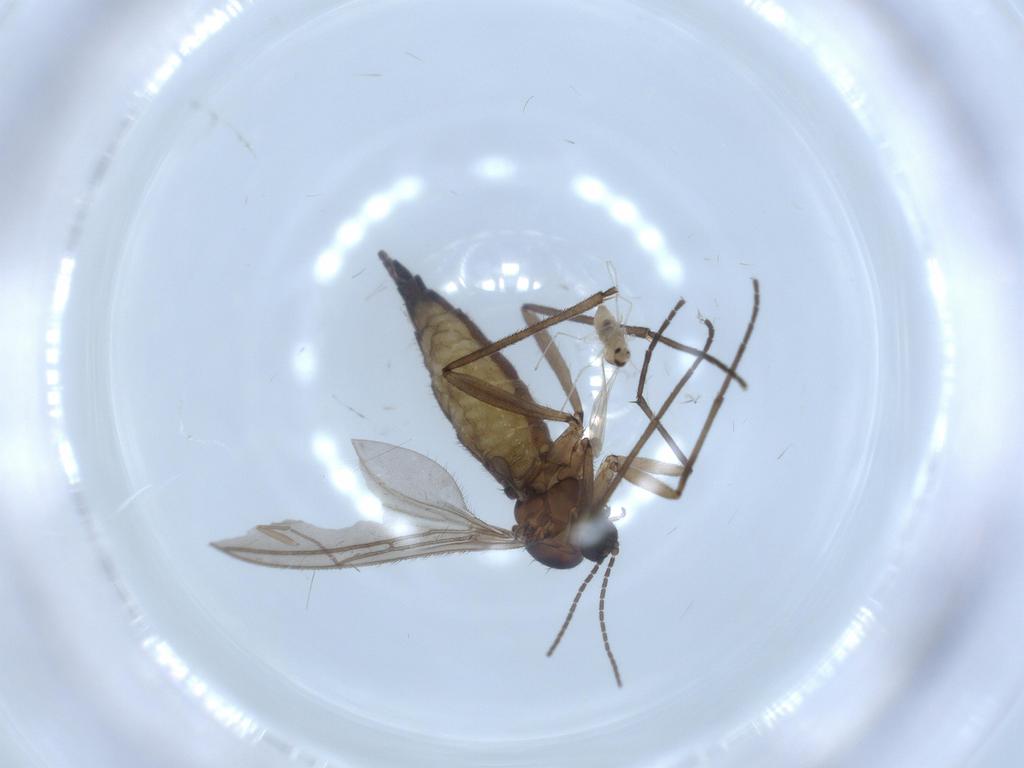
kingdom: Animalia
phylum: Arthropoda
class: Insecta
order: Diptera
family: Sciaridae
